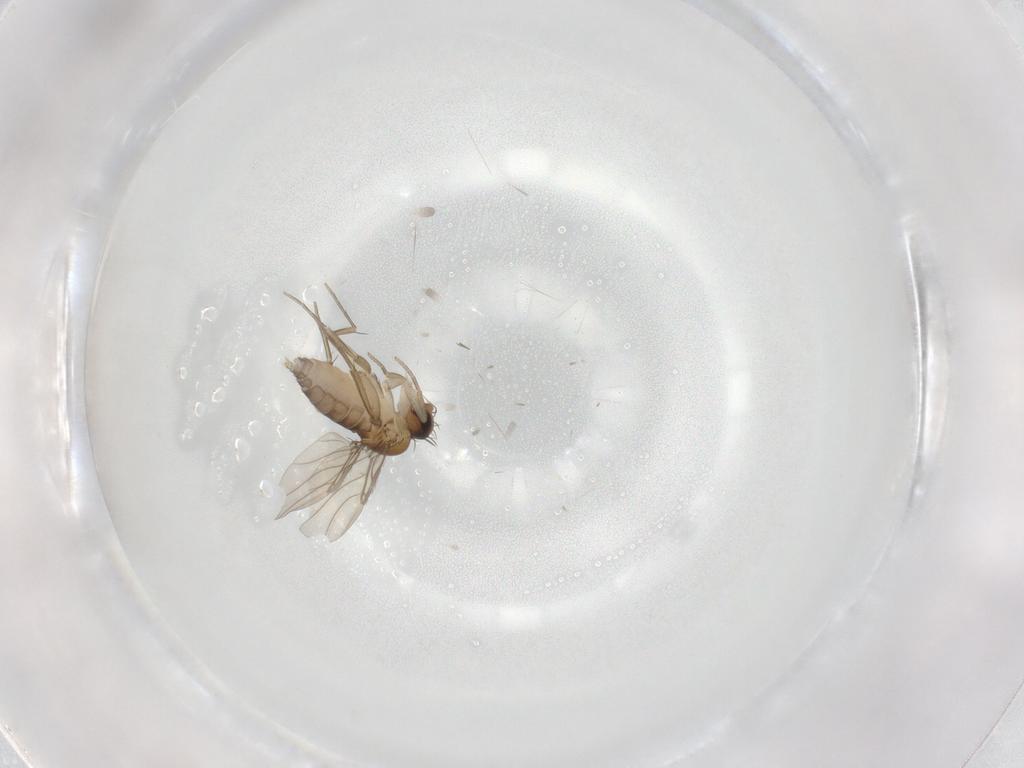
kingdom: Animalia
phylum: Arthropoda
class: Insecta
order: Diptera
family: Phoridae
